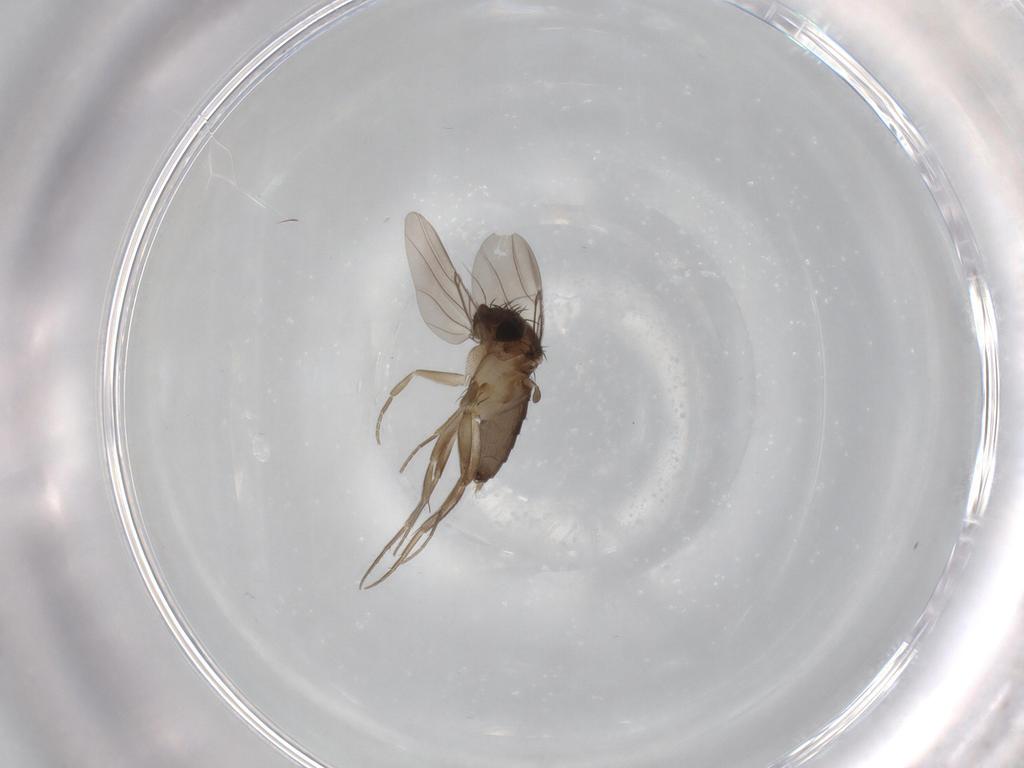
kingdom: Animalia
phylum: Arthropoda
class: Insecta
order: Diptera
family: Phoridae
